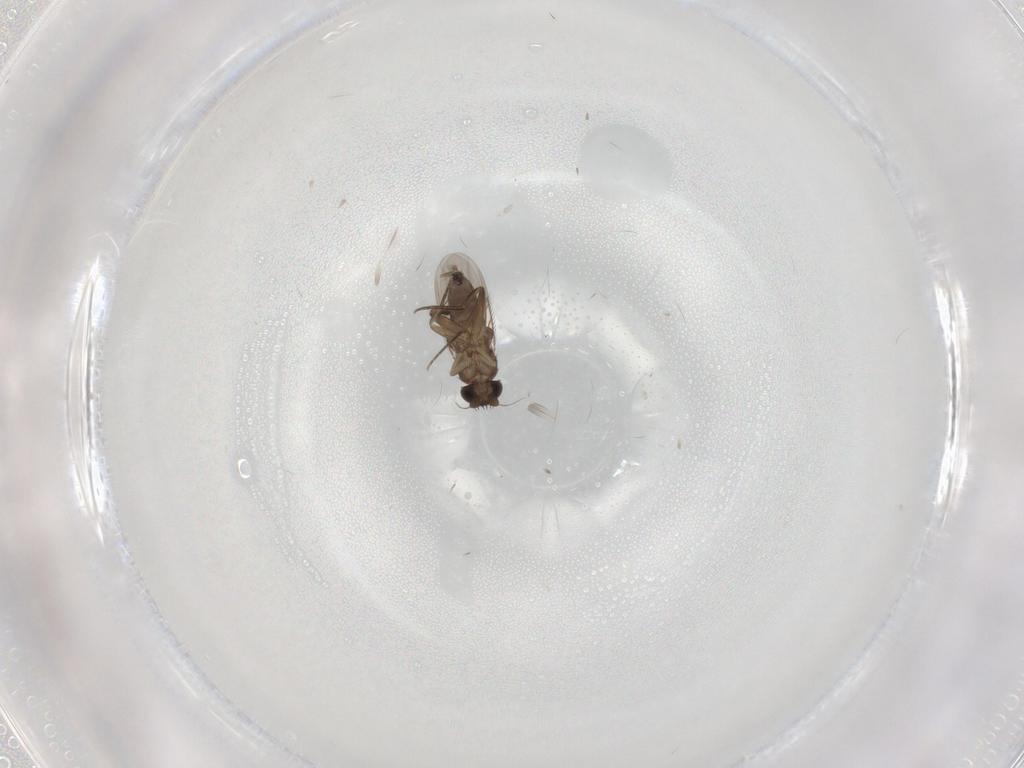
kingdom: Animalia
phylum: Arthropoda
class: Insecta
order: Diptera
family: Phoridae
